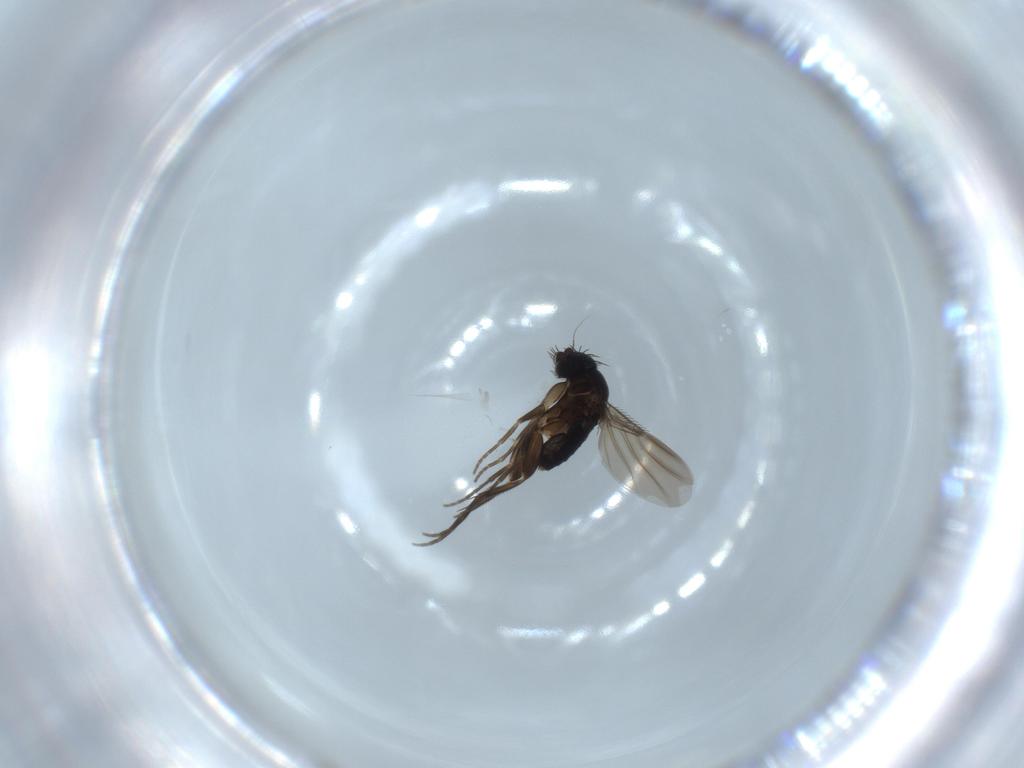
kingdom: Animalia
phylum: Arthropoda
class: Insecta
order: Diptera
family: Phoridae
